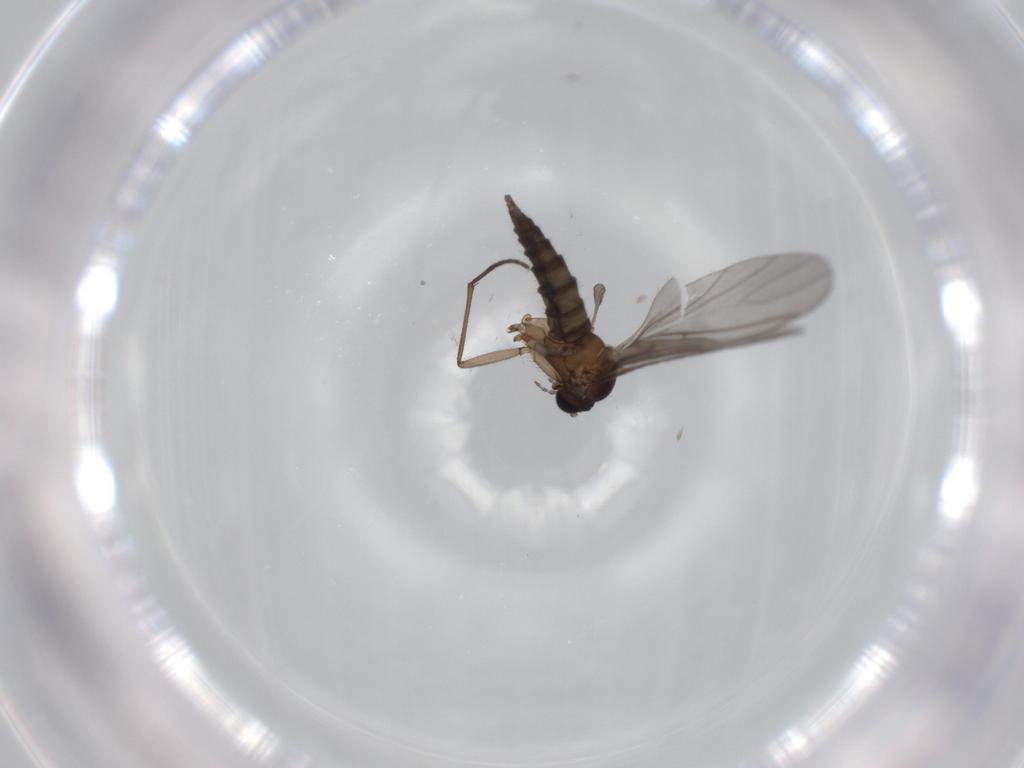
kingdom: Animalia
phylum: Arthropoda
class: Insecta
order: Diptera
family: Sciaridae
